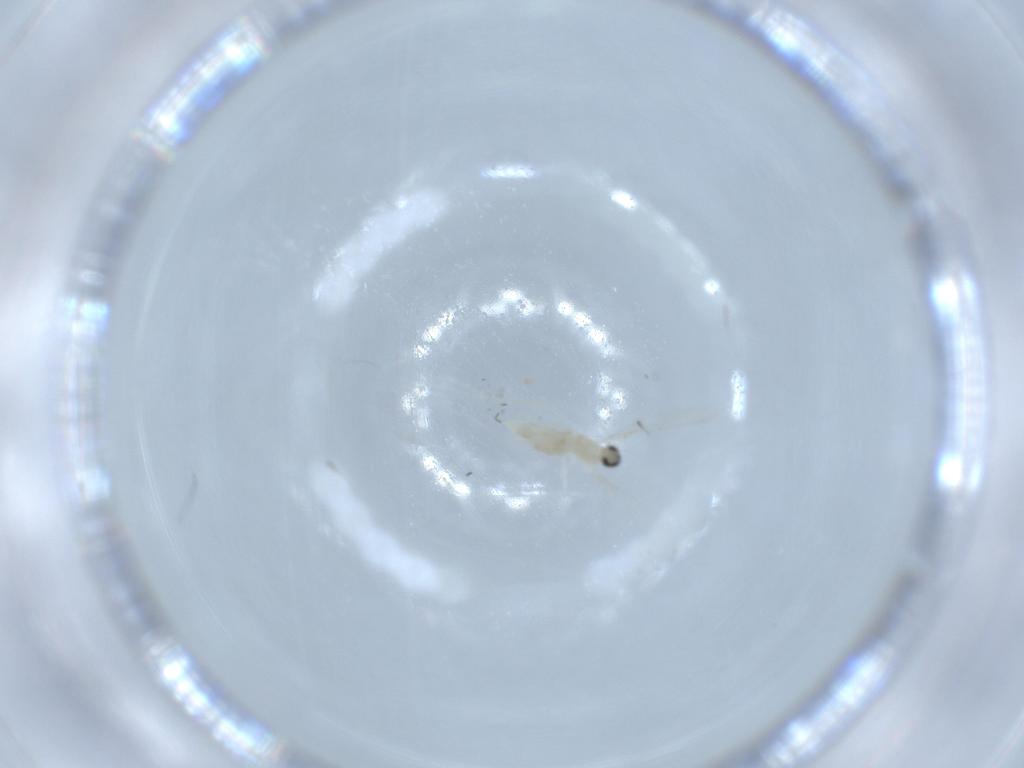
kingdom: Animalia
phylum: Arthropoda
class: Insecta
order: Diptera
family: Cecidomyiidae
